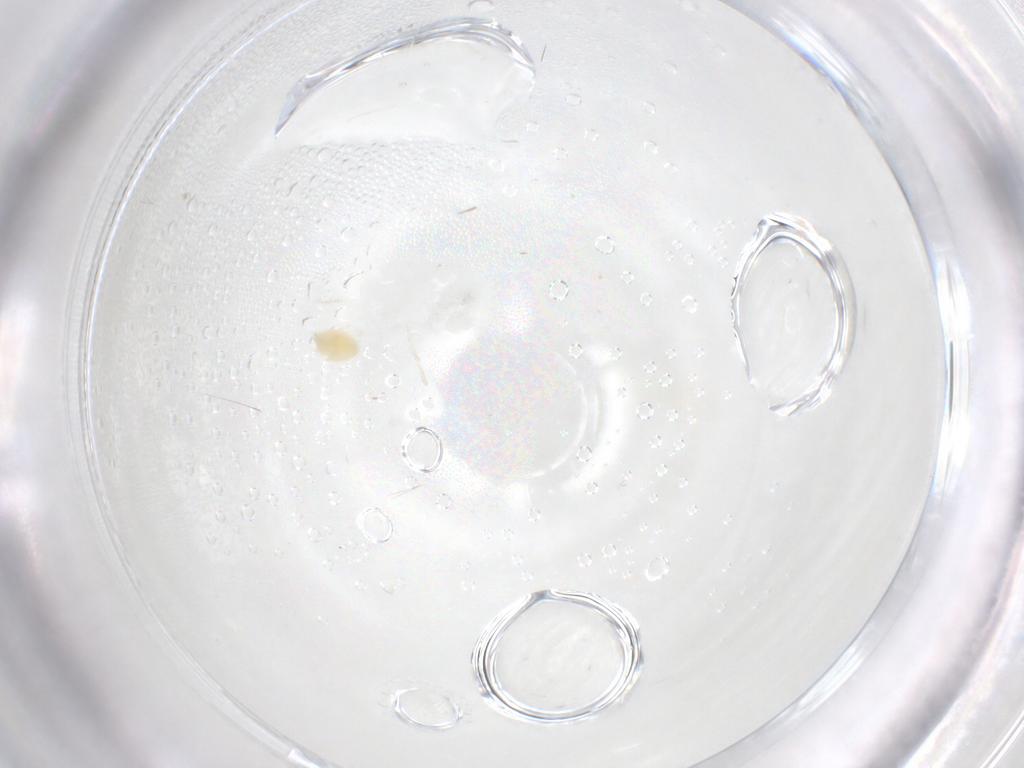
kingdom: Animalia
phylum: Arthropoda
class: Arachnida
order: Trombidiformes
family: Tetranychidae
